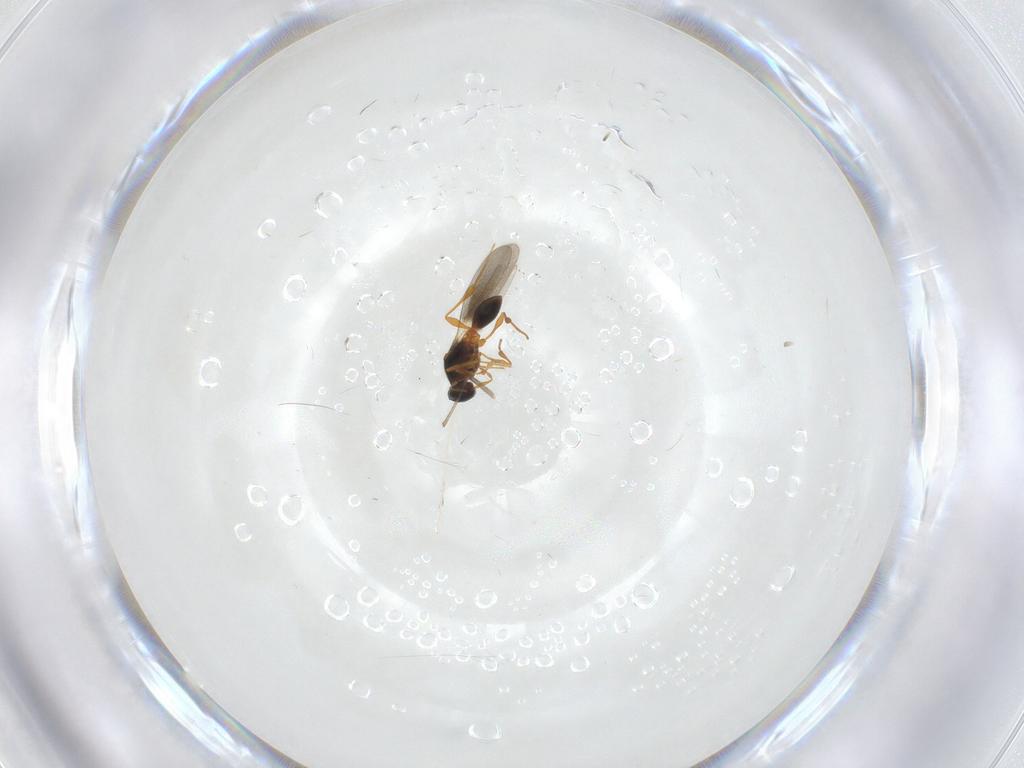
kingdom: Animalia
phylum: Arthropoda
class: Insecta
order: Hymenoptera
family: Platygastridae
